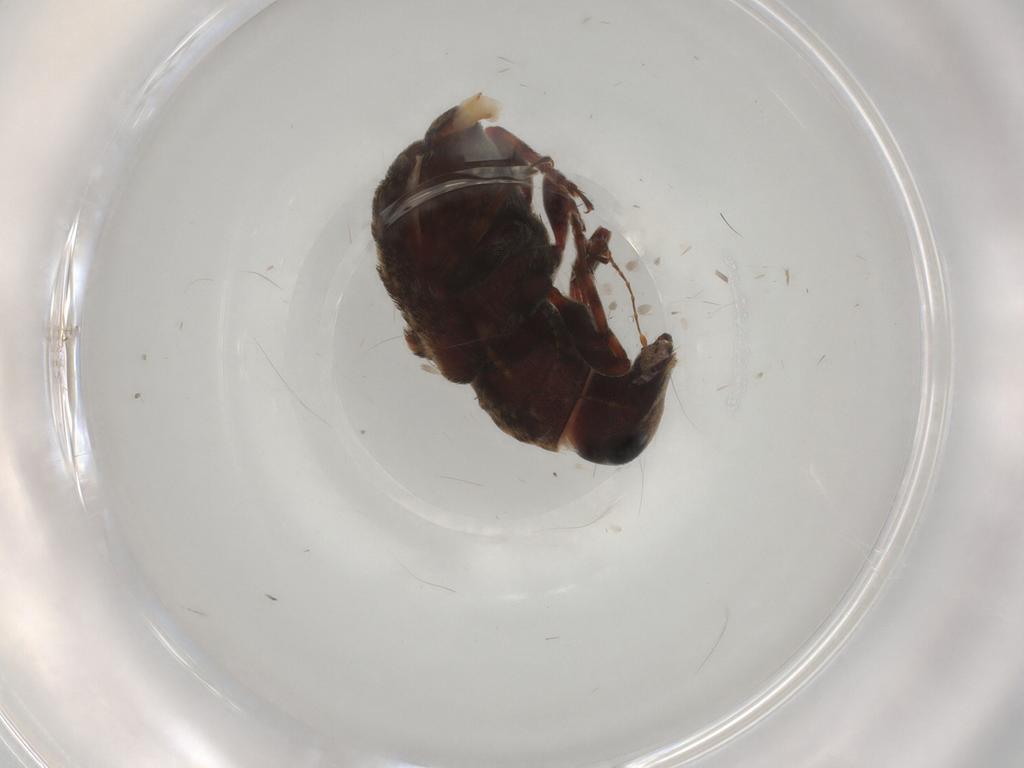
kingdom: Animalia
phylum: Arthropoda
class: Insecta
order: Coleoptera
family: Anthribidae
